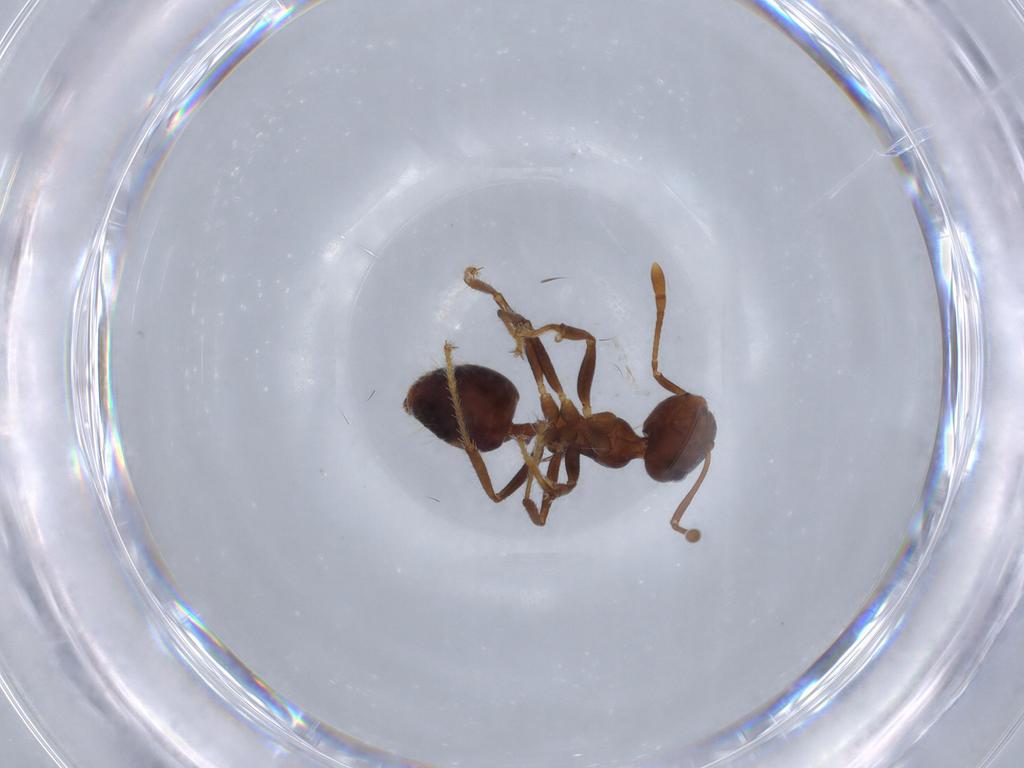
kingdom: Animalia
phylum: Arthropoda
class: Insecta
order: Hymenoptera
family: Formicidae
